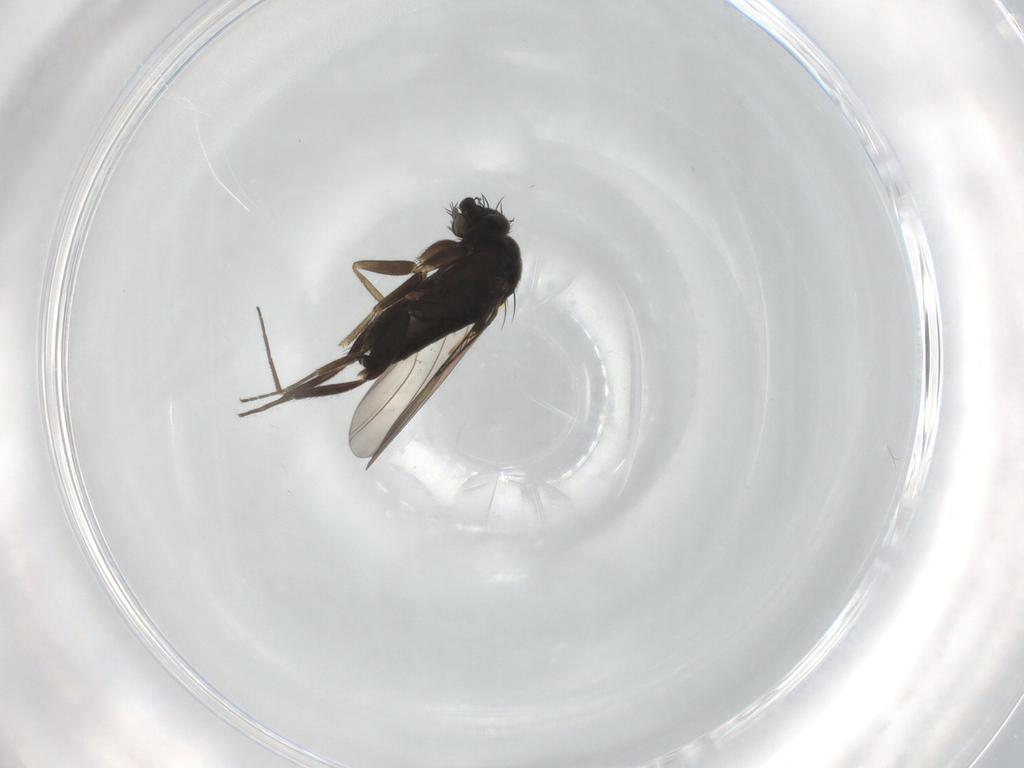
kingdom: Animalia
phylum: Arthropoda
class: Insecta
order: Diptera
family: Phoridae
